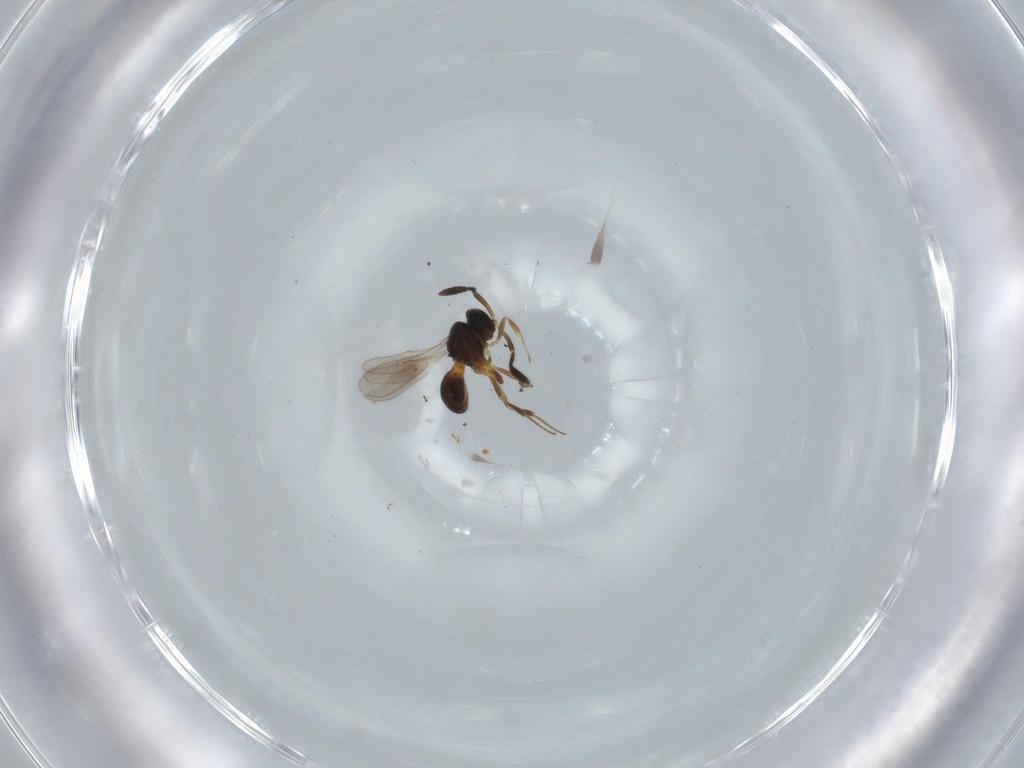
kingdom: Animalia
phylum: Arthropoda
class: Insecta
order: Hymenoptera
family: Scelionidae
